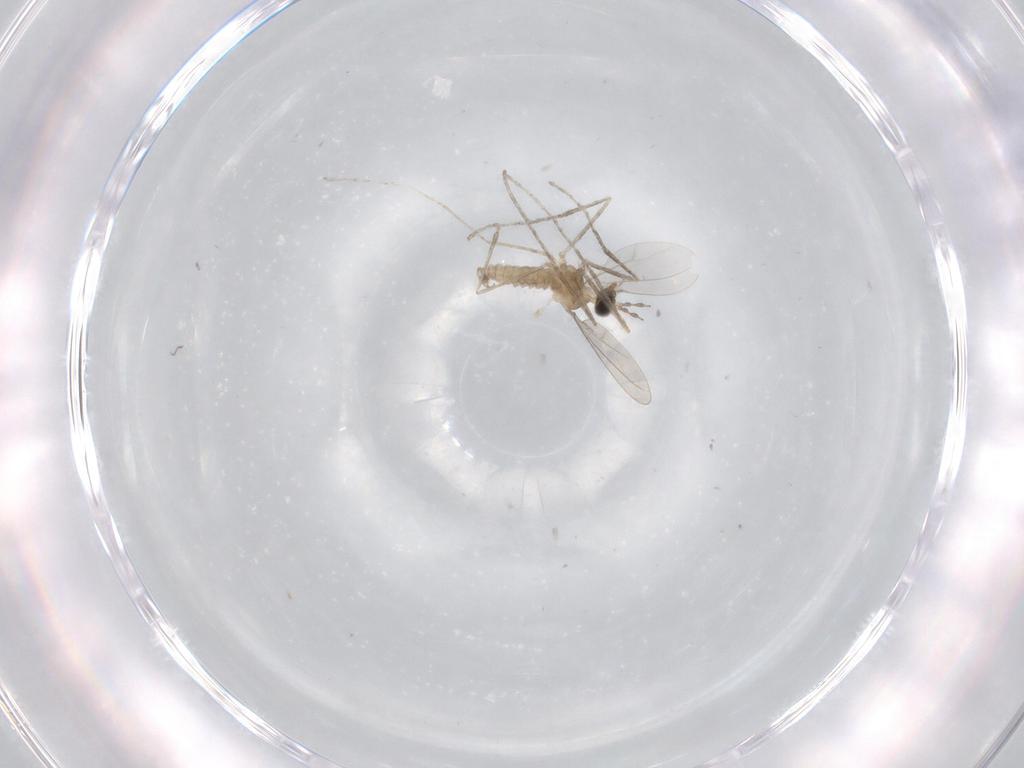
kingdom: Animalia
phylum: Arthropoda
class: Insecta
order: Diptera
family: Cecidomyiidae
